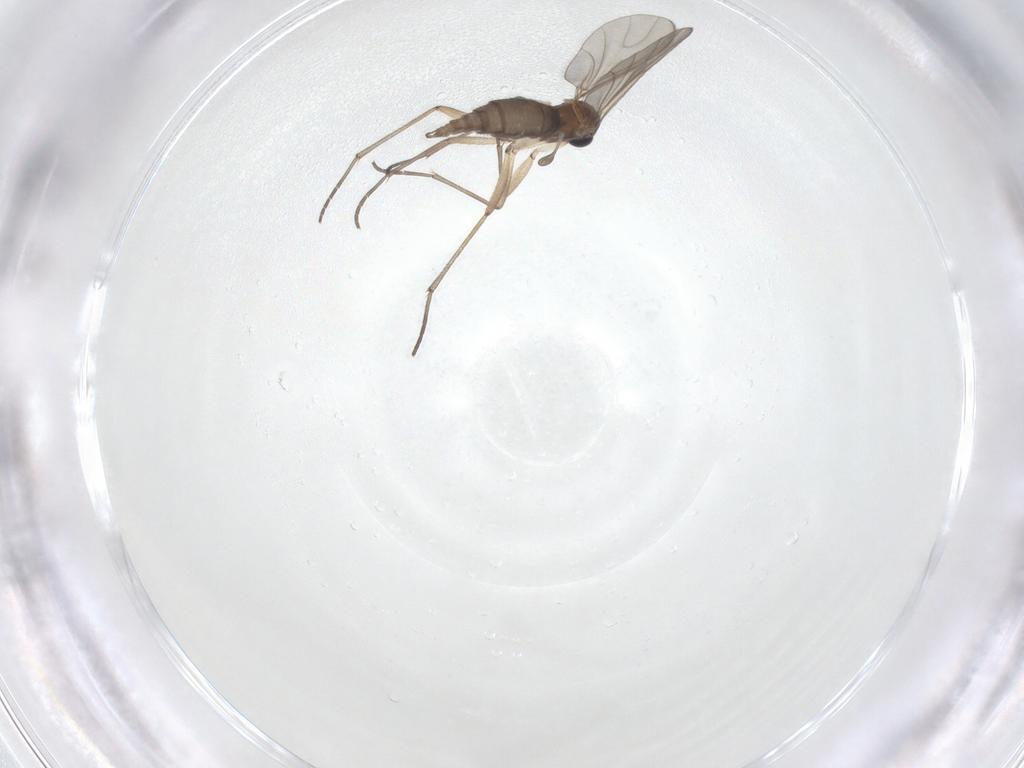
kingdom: Animalia
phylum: Arthropoda
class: Insecta
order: Diptera
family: Sciaridae
